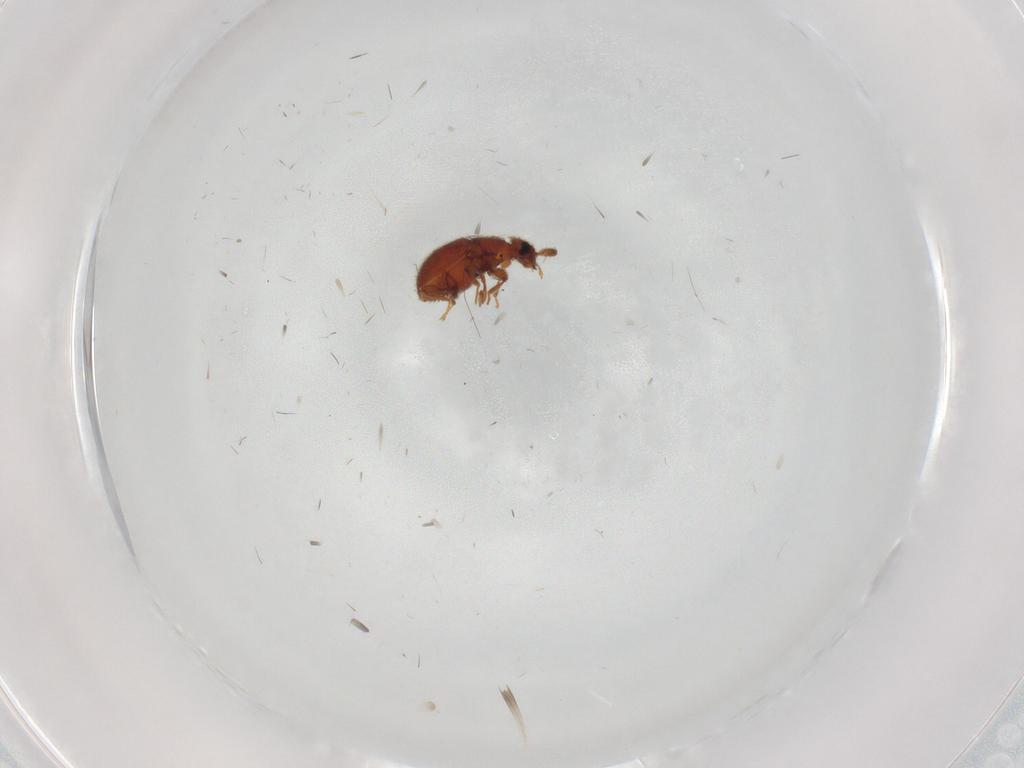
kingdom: Animalia
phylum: Arthropoda
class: Insecta
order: Coleoptera
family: Staphylinidae
